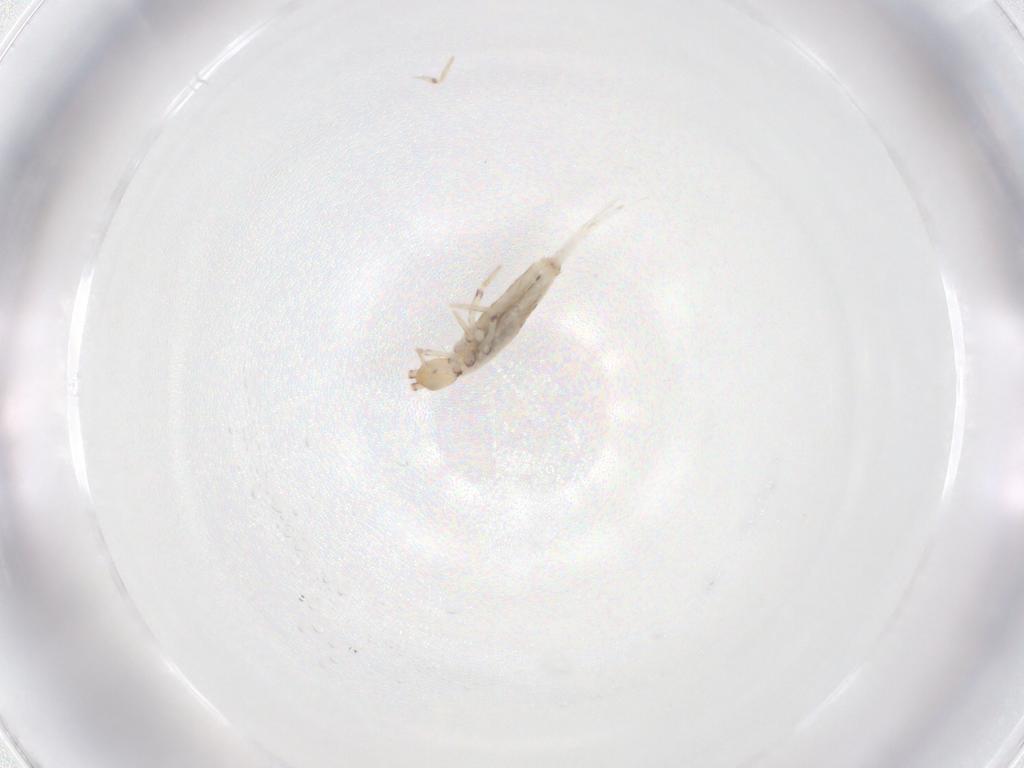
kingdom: Animalia
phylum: Arthropoda
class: Collembola
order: Entomobryomorpha
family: Entomobryidae
